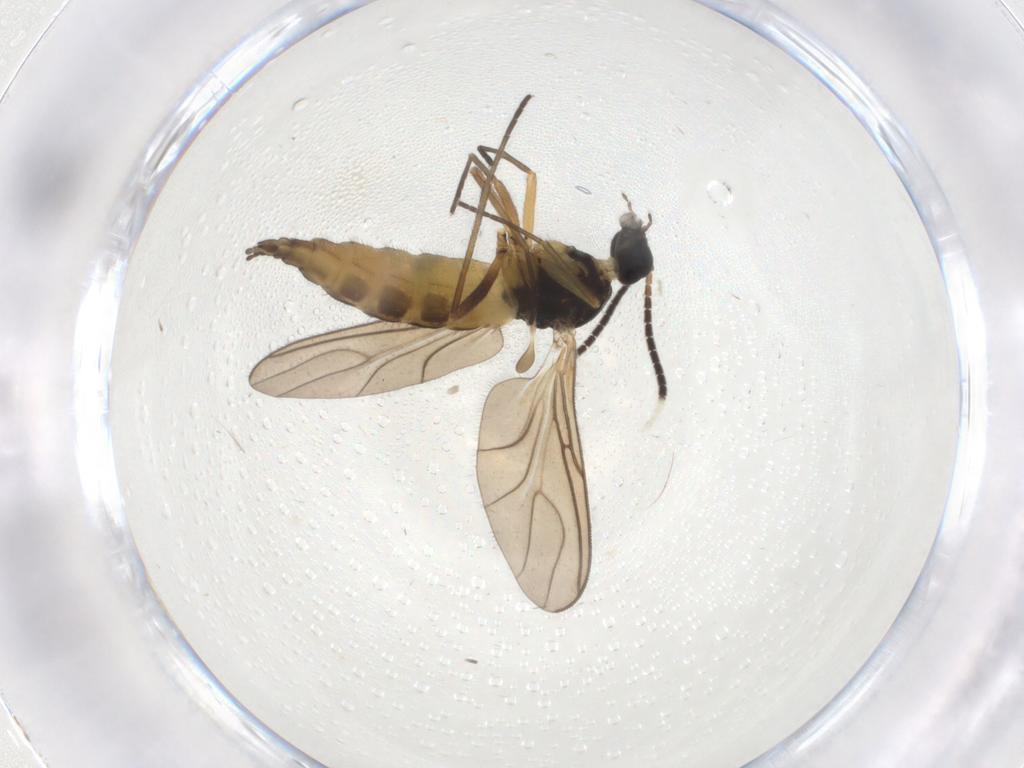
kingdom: Animalia
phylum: Arthropoda
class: Insecta
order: Diptera
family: Sciaridae
